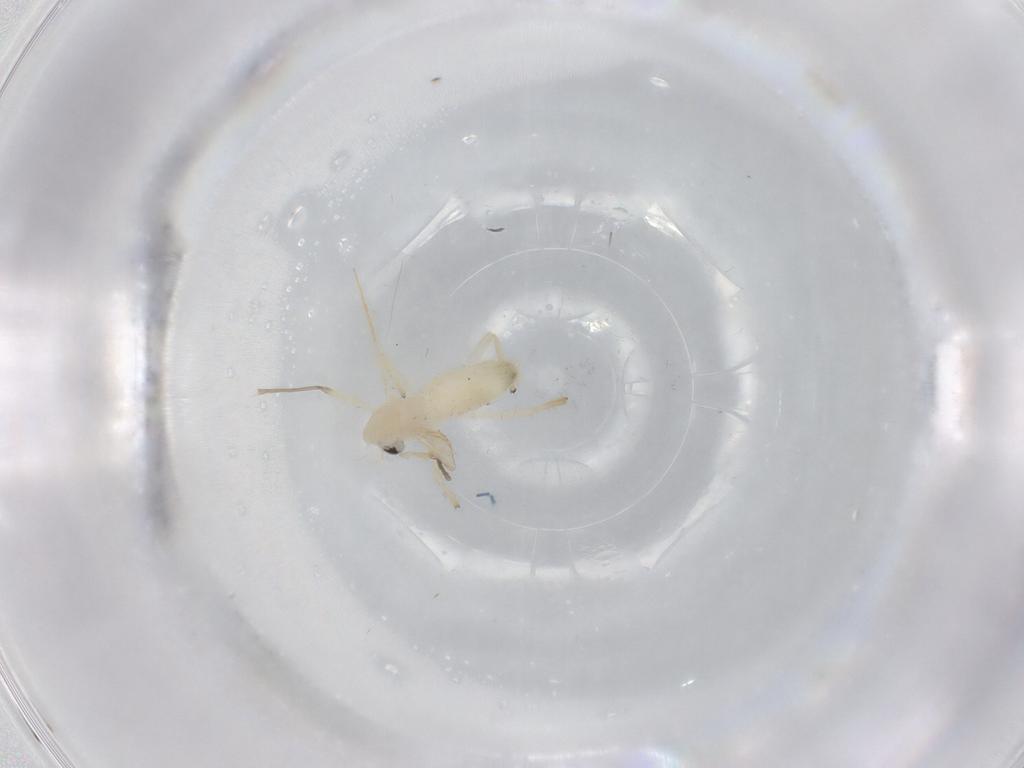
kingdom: Animalia
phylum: Arthropoda
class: Insecta
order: Diptera
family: Chironomidae
